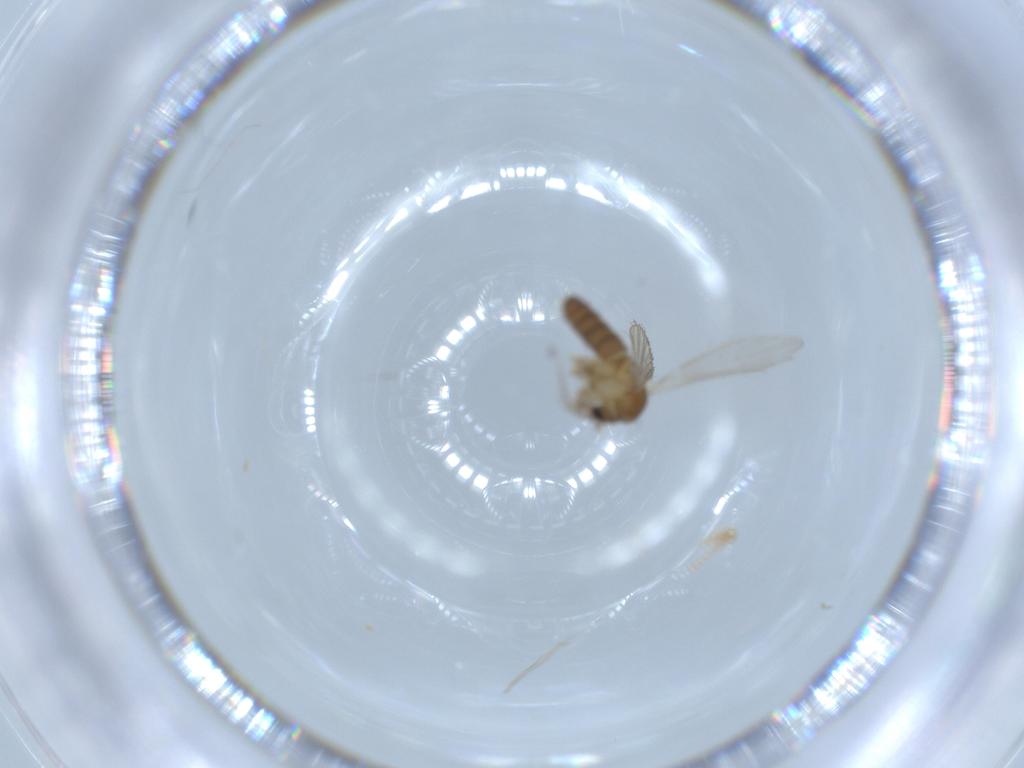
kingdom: Animalia
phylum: Arthropoda
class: Insecta
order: Diptera
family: Psychodidae
